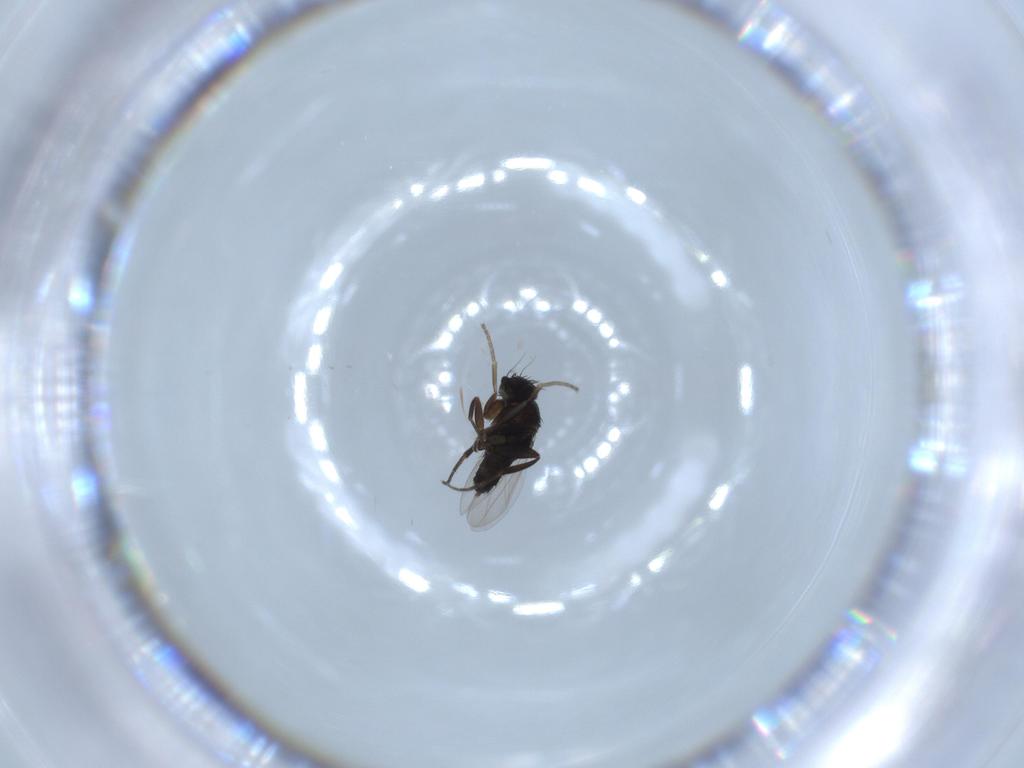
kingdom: Animalia
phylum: Arthropoda
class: Insecta
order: Diptera
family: Phoridae
